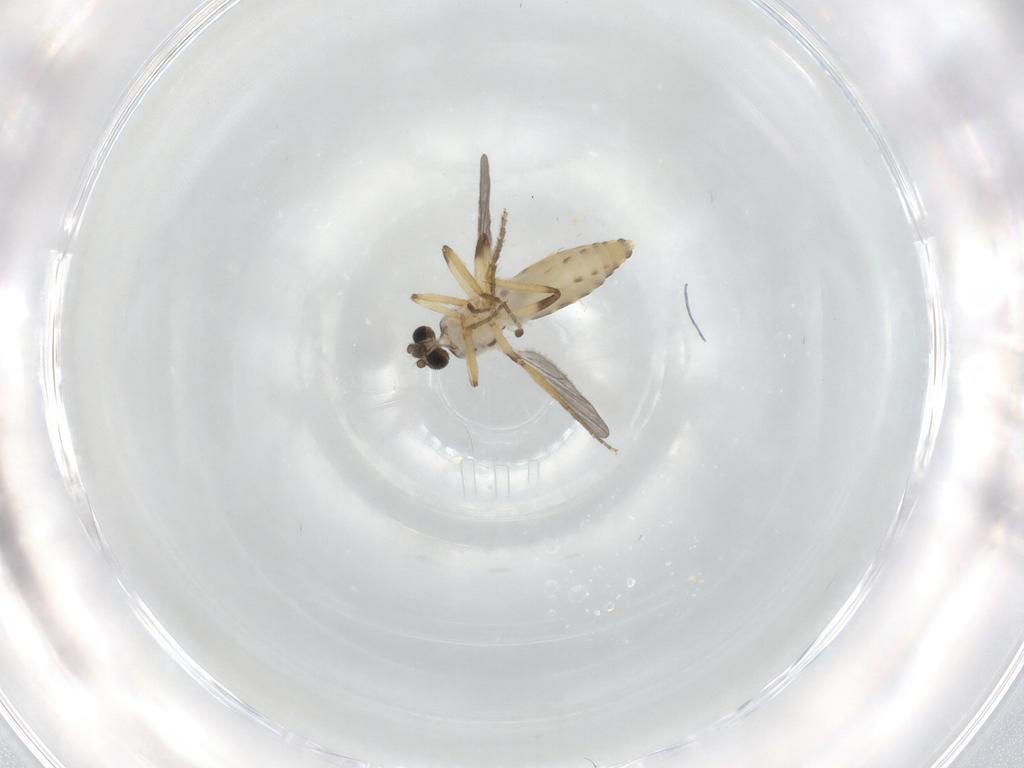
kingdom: Animalia
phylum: Arthropoda
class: Insecta
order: Diptera
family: Ceratopogonidae
